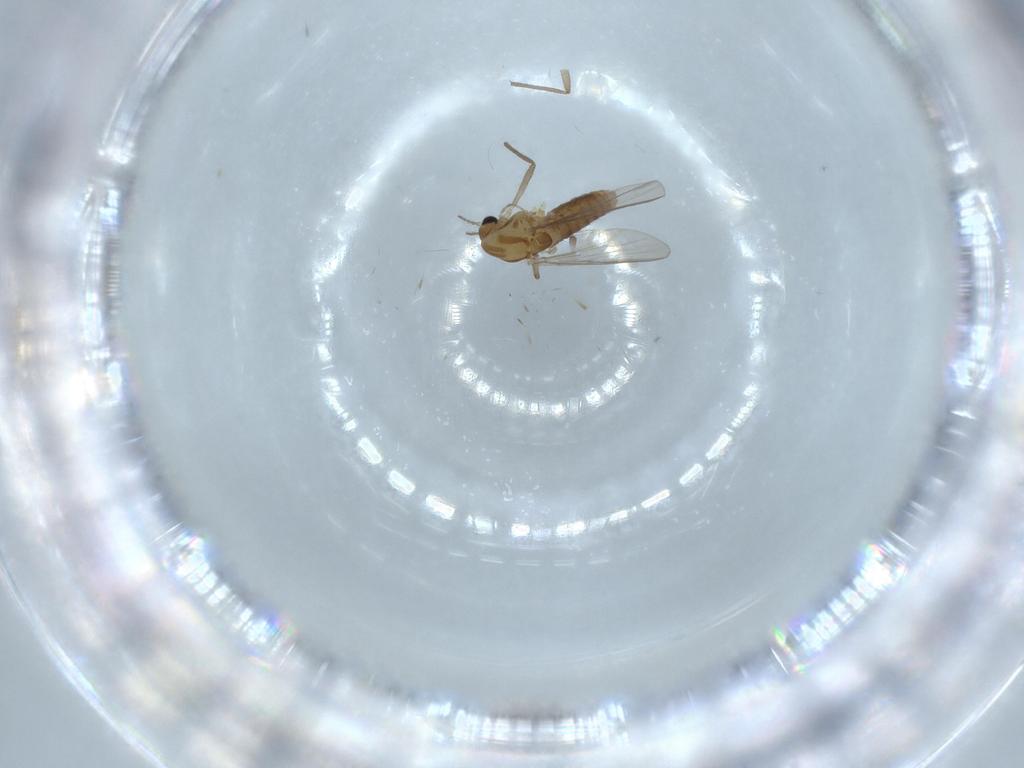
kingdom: Animalia
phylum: Arthropoda
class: Insecta
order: Diptera
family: Chironomidae
